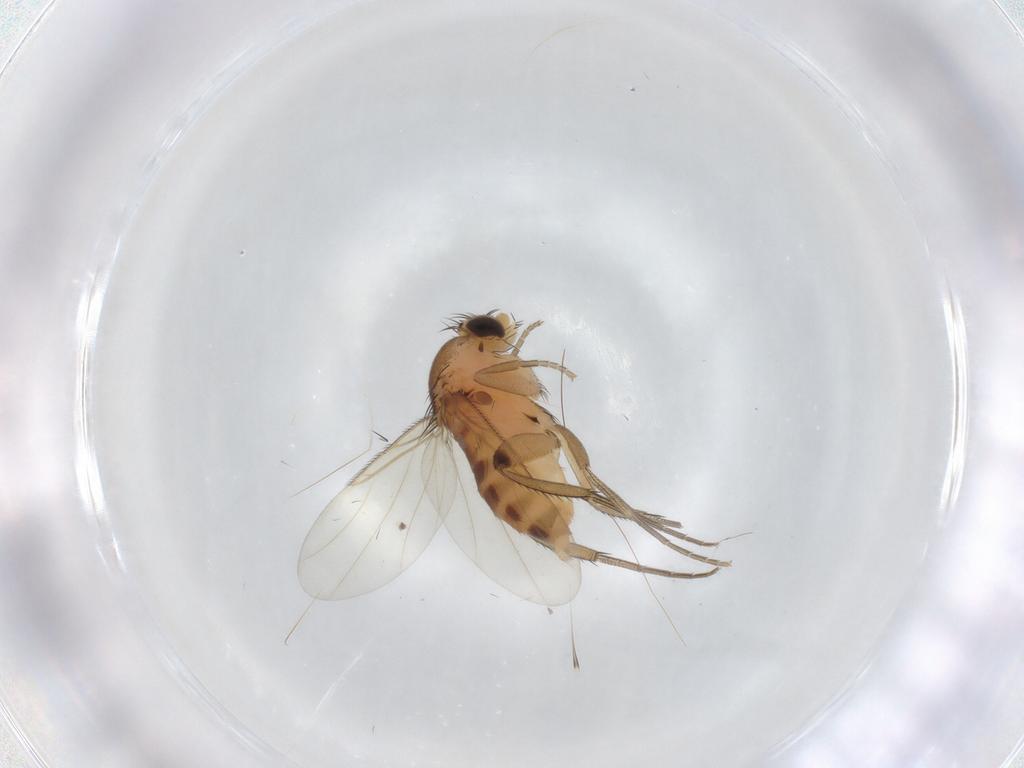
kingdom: Animalia
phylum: Arthropoda
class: Insecta
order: Diptera
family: Phoridae
